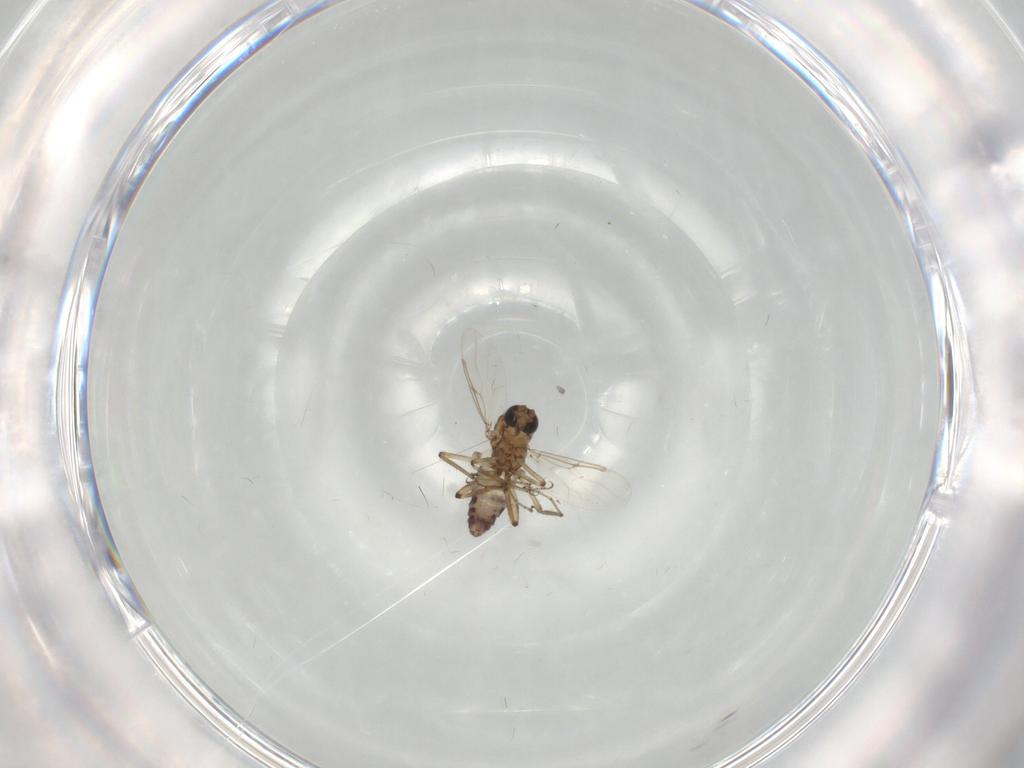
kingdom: Animalia
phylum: Arthropoda
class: Insecta
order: Diptera
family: Ceratopogonidae
